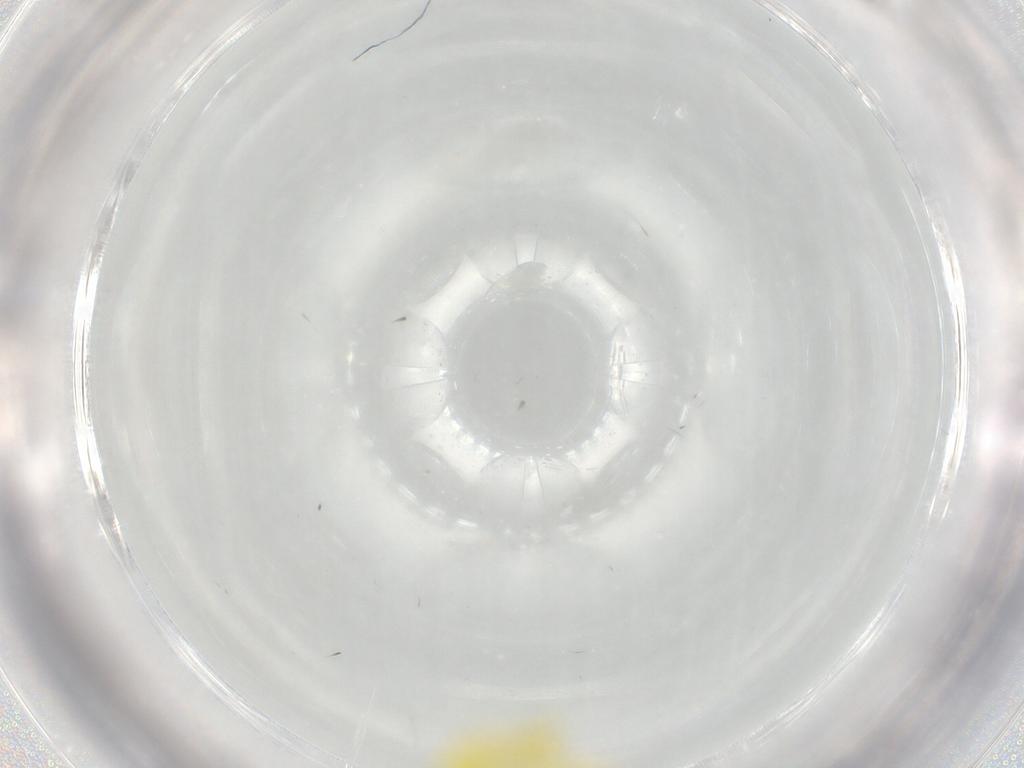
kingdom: Animalia
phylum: Arthropoda
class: Insecta
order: Hemiptera
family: Cicadellidae
